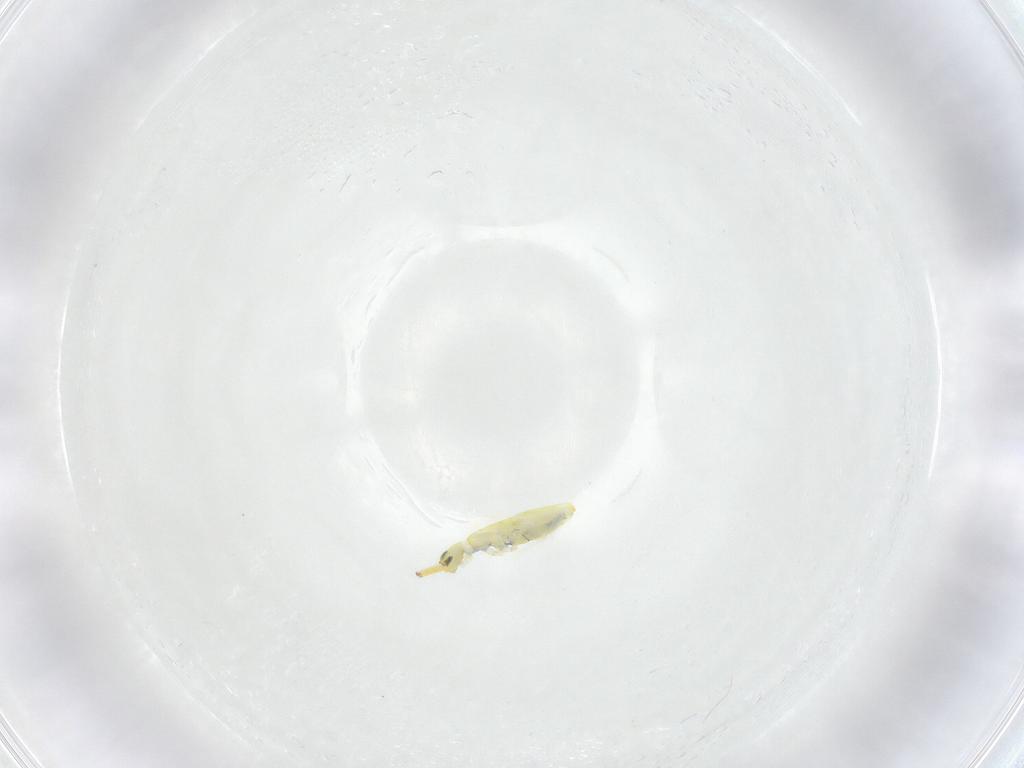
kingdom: Animalia
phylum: Arthropoda
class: Collembola
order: Entomobryomorpha
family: Paronellidae
